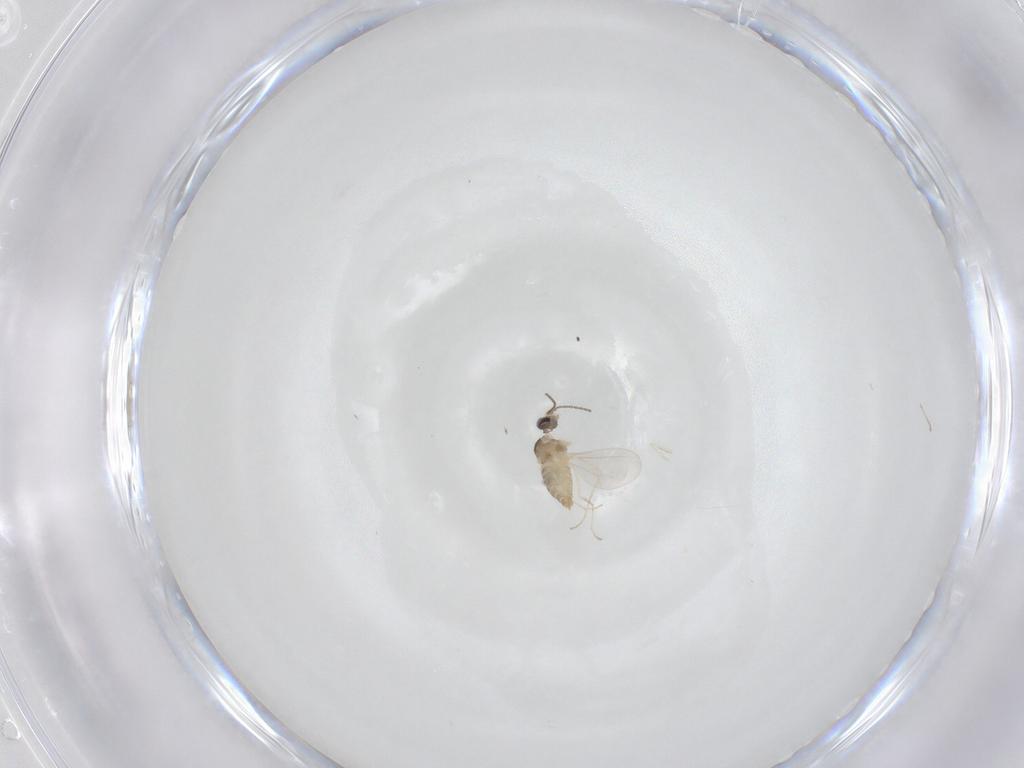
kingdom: Animalia
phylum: Arthropoda
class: Insecta
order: Diptera
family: Cecidomyiidae
